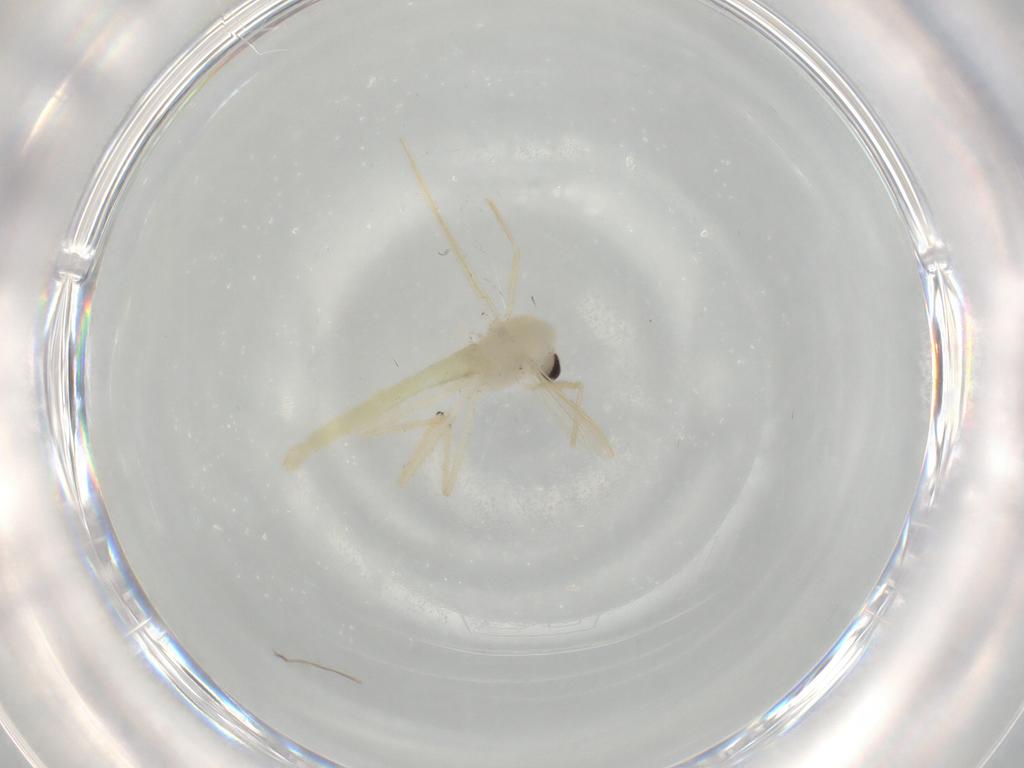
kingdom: Animalia
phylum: Arthropoda
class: Insecta
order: Diptera
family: Chironomidae
